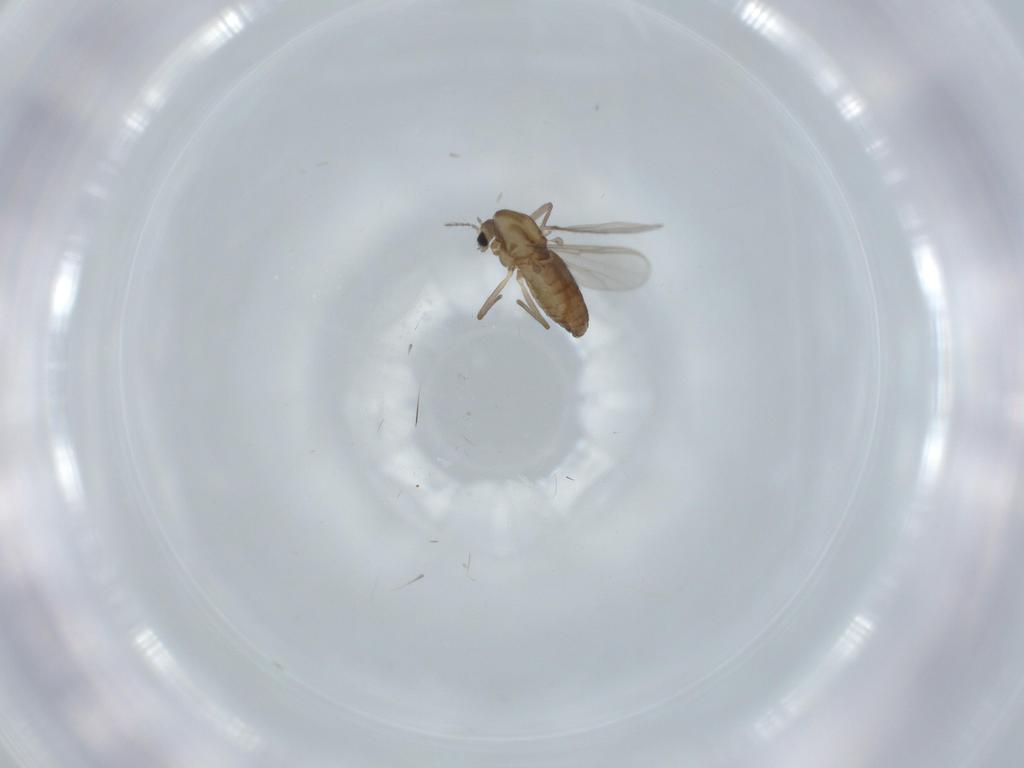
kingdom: Animalia
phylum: Arthropoda
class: Insecta
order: Diptera
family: Chironomidae
